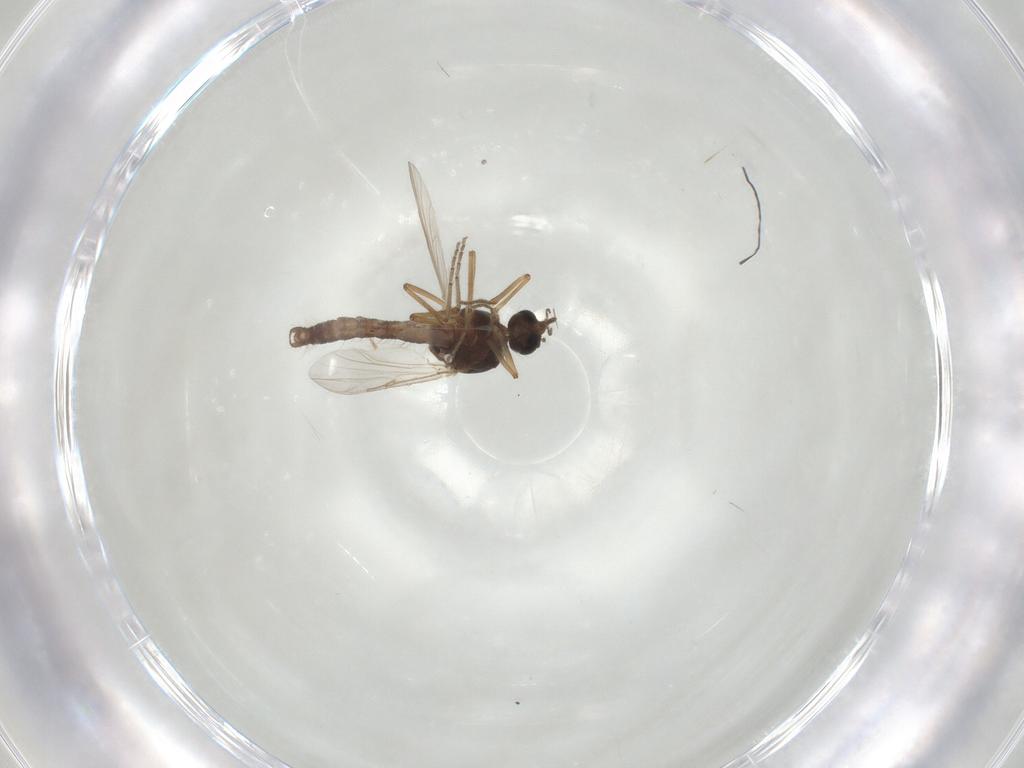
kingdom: Animalia
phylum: Arthropoda
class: Insecta
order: Diptera
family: Ceratopogonidae
